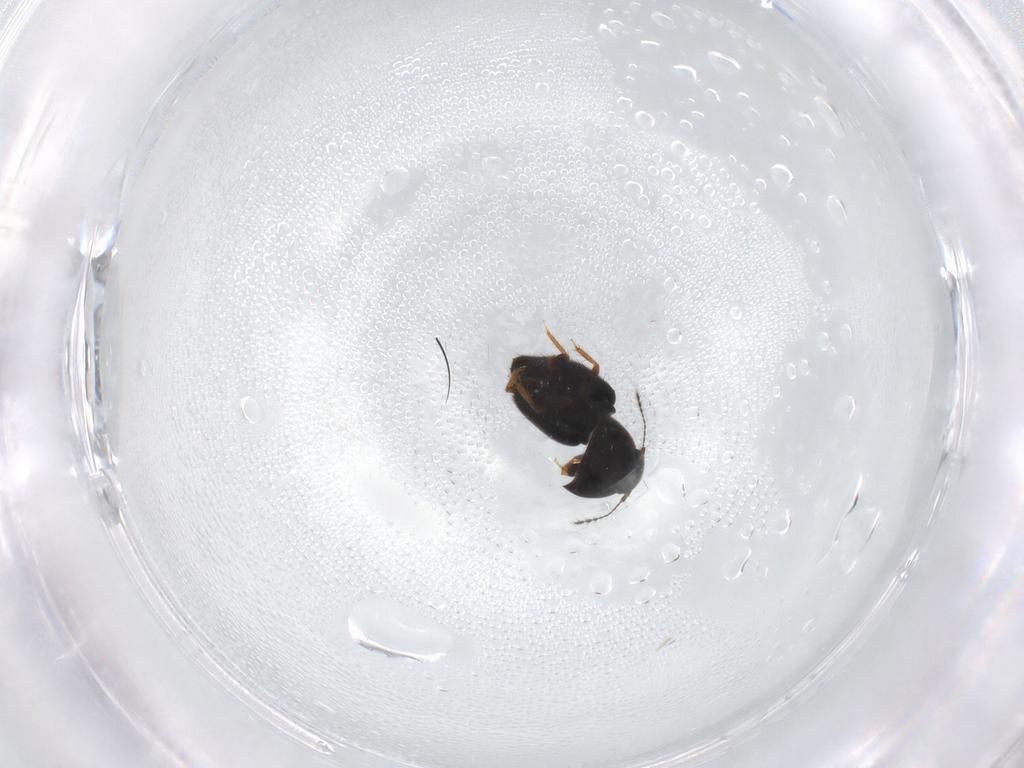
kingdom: Animalia
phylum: Arthropoda
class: Insecta
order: Coleoptera
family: Ptiliidae
